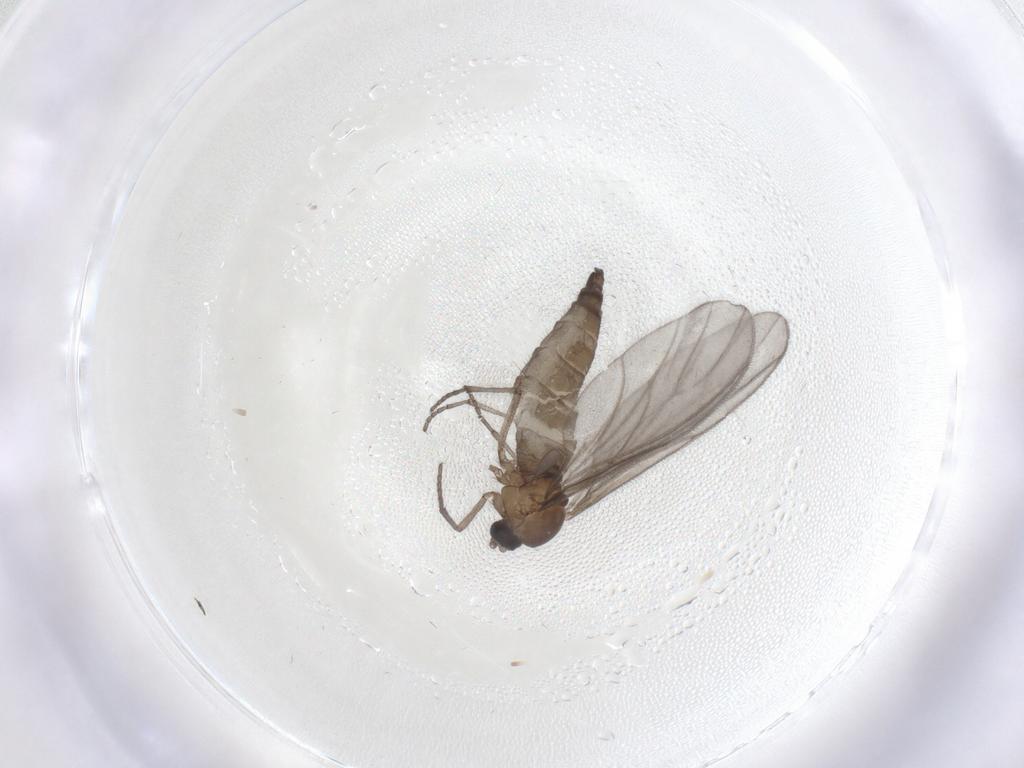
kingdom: Animalia
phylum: Arthropoda
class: Insecta
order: Diptera
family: Sciaridae
